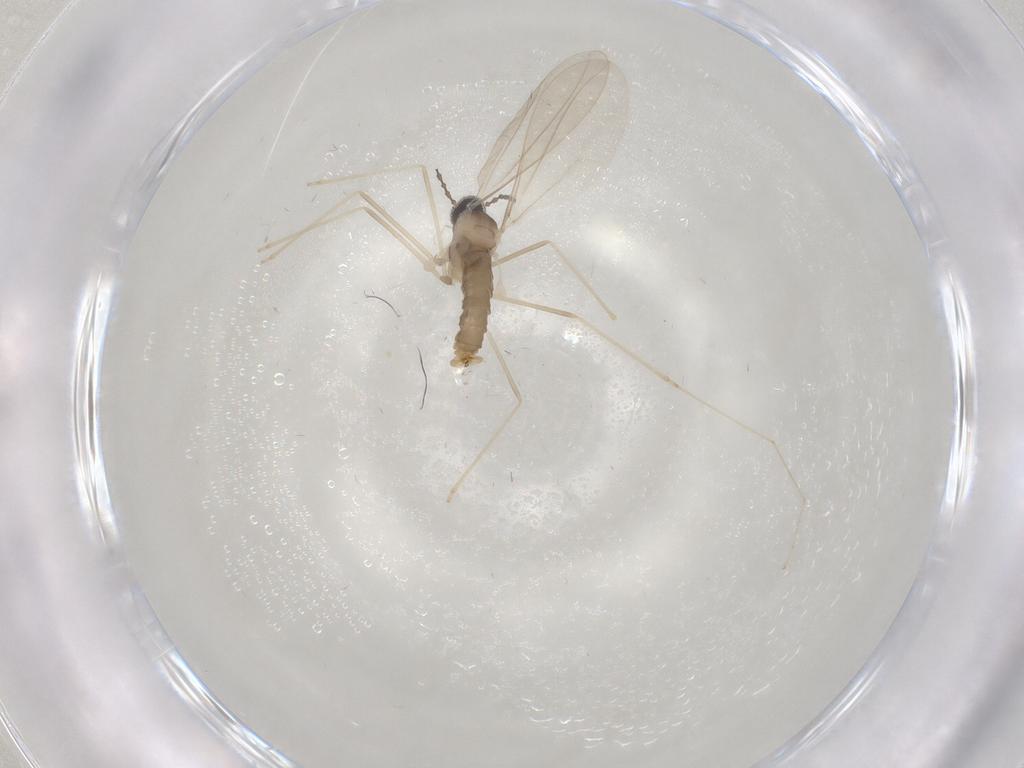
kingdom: Animalia
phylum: Arthropoda
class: Insecta
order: Diptera
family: Cecidomyiidae
